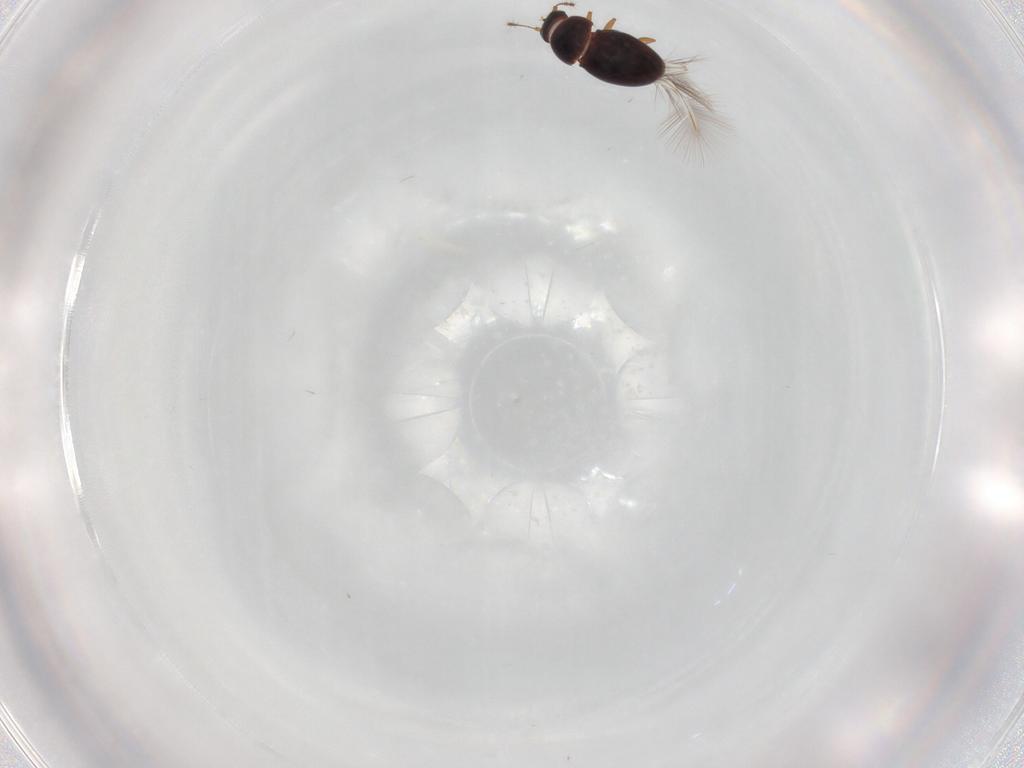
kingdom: Animalia
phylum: Arthropoda
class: Insecta
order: Coleoptera
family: Ptiliidae
